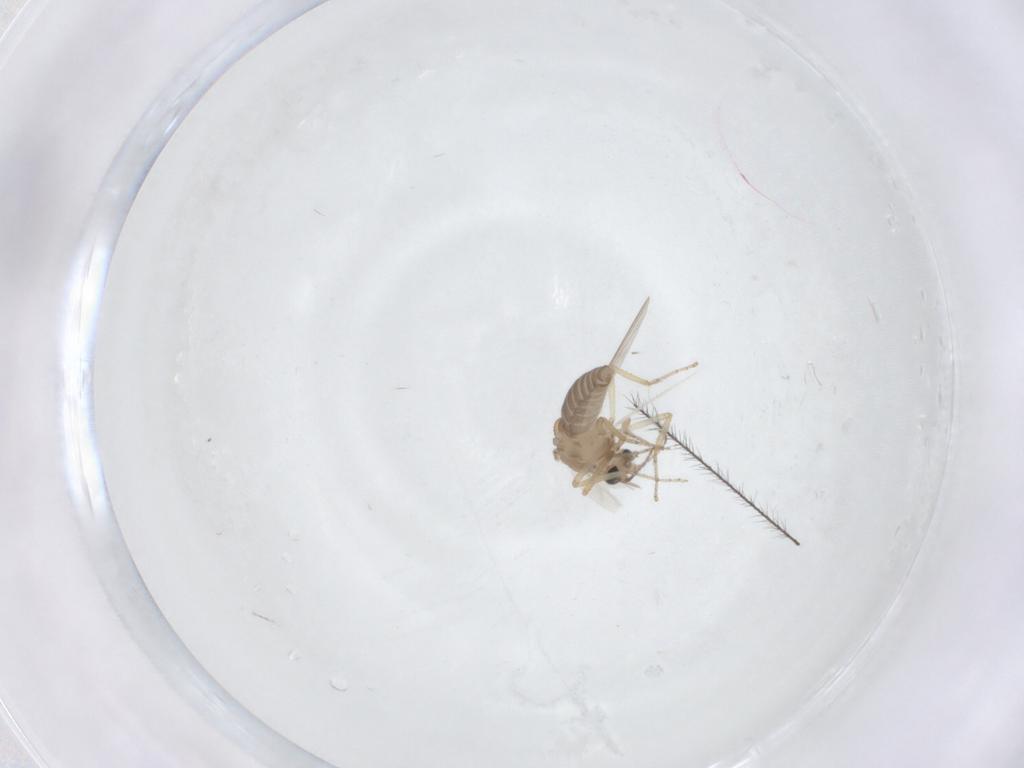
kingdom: Animalia
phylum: Arthropoda
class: Insecta
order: Diptera
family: Ceratopogonidae
